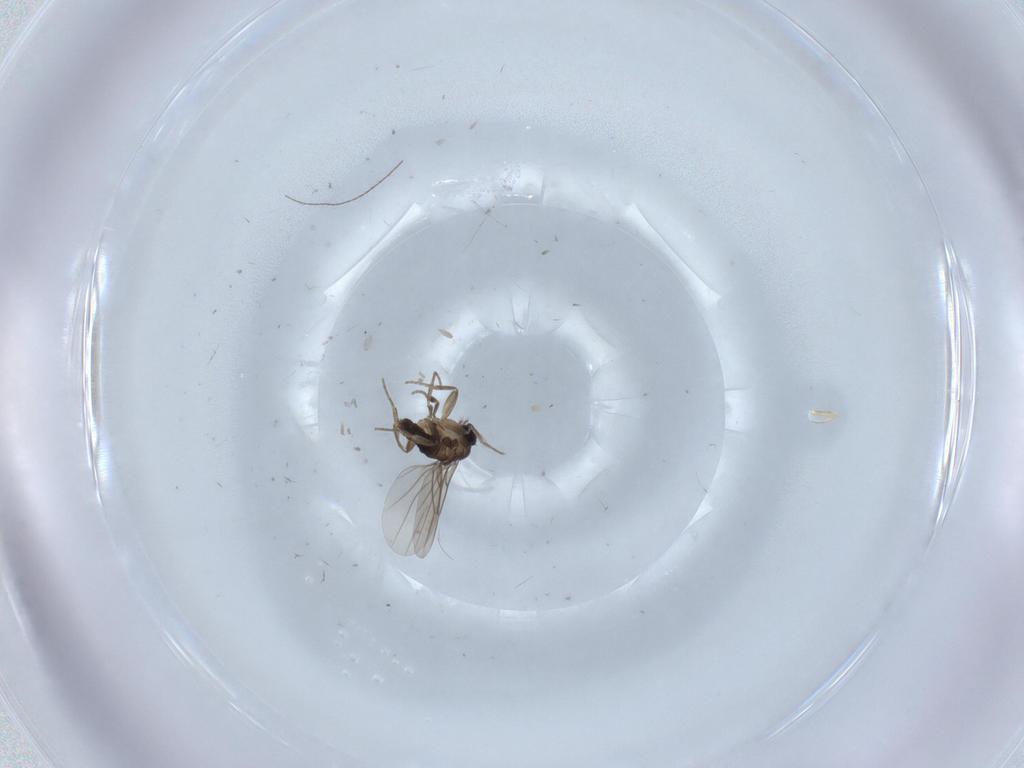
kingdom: Animalia
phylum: Arthropoda
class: Insecta
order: Diptera
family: Phoridae
